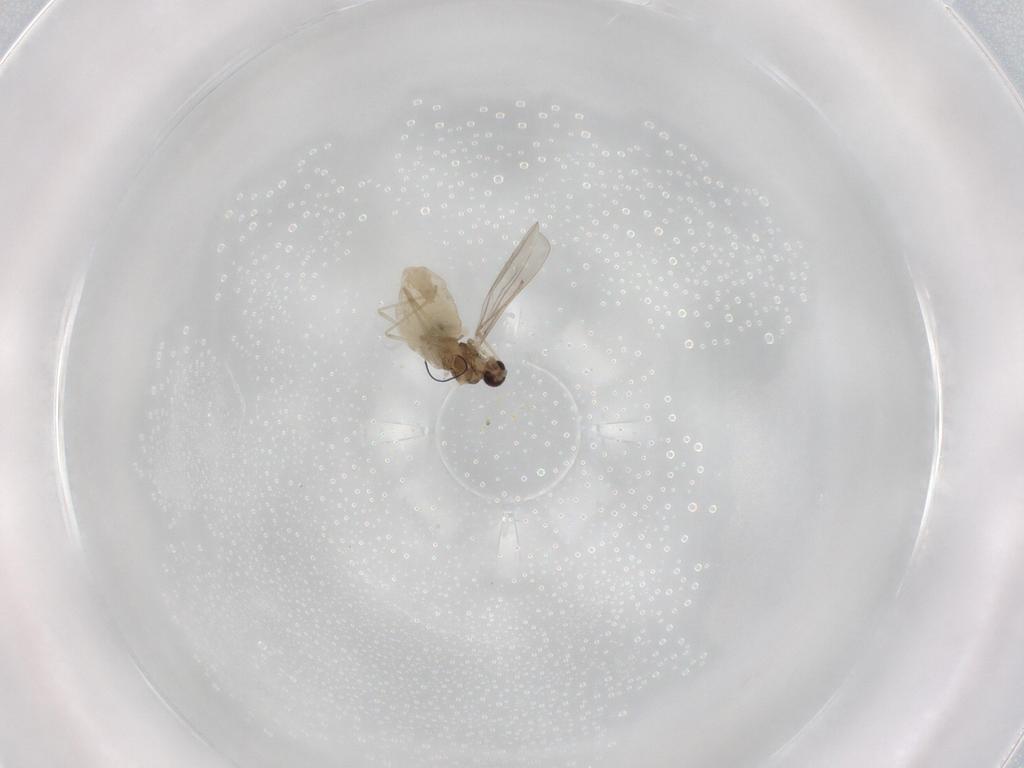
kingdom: Animalia
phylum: Arthropoda
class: Insecta
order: Diptera
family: Cecidomyiidae
